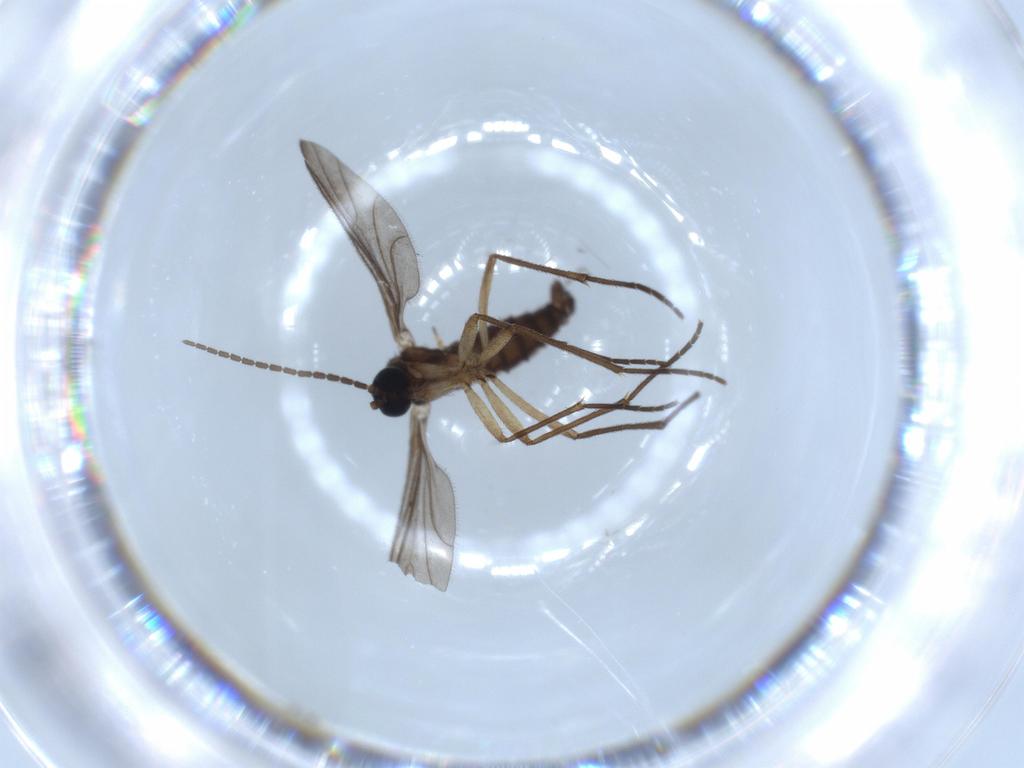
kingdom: Animalia
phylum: Arthropoda
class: Insecta
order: Diptera
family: Sciaridae
